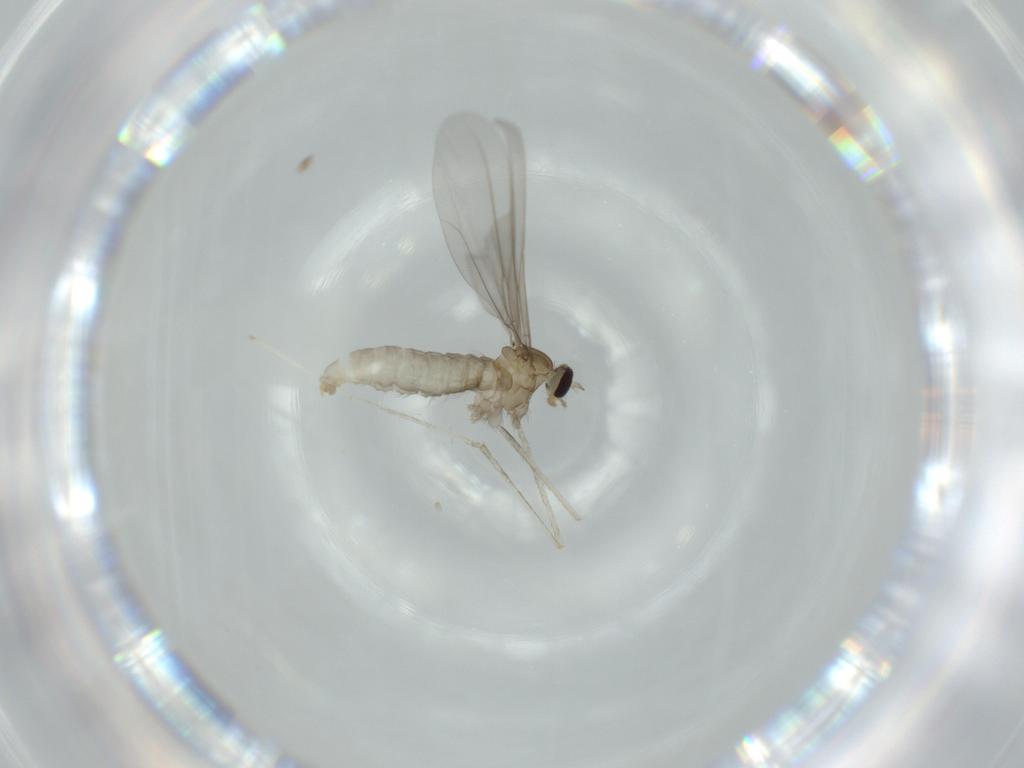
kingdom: Animalia
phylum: Arthropoda
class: Insecta
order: Diptera
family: Cecidomyiidae
